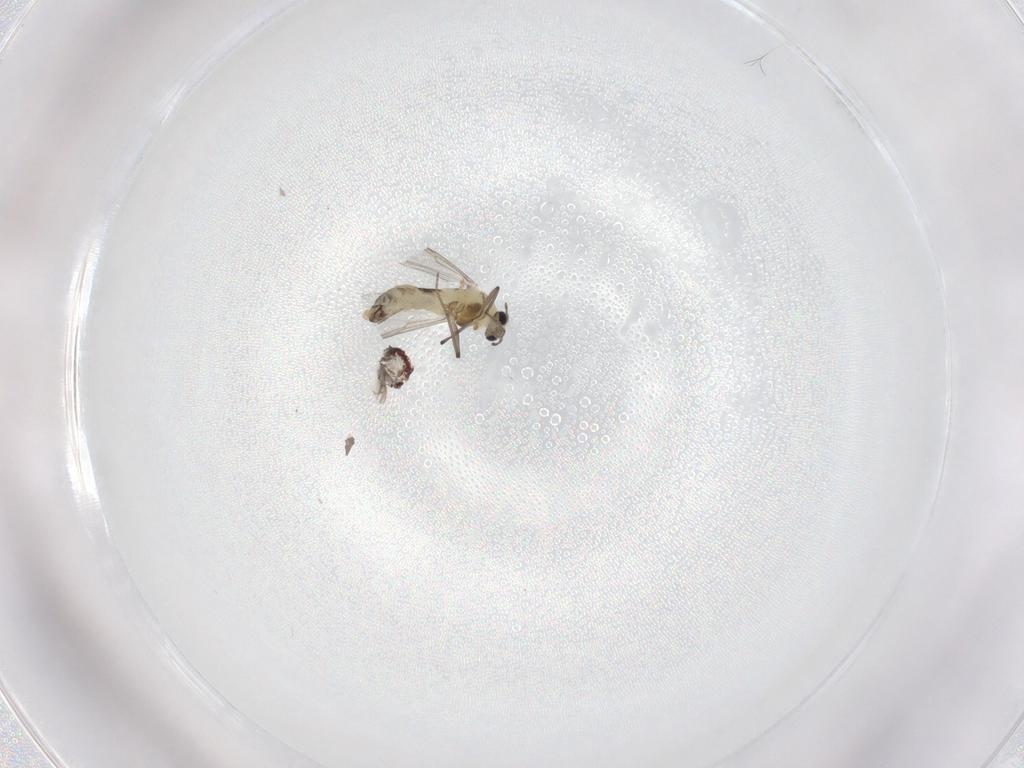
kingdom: Animalia
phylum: Arthropoda
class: Insecta
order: Diptera
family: Chironomidae
